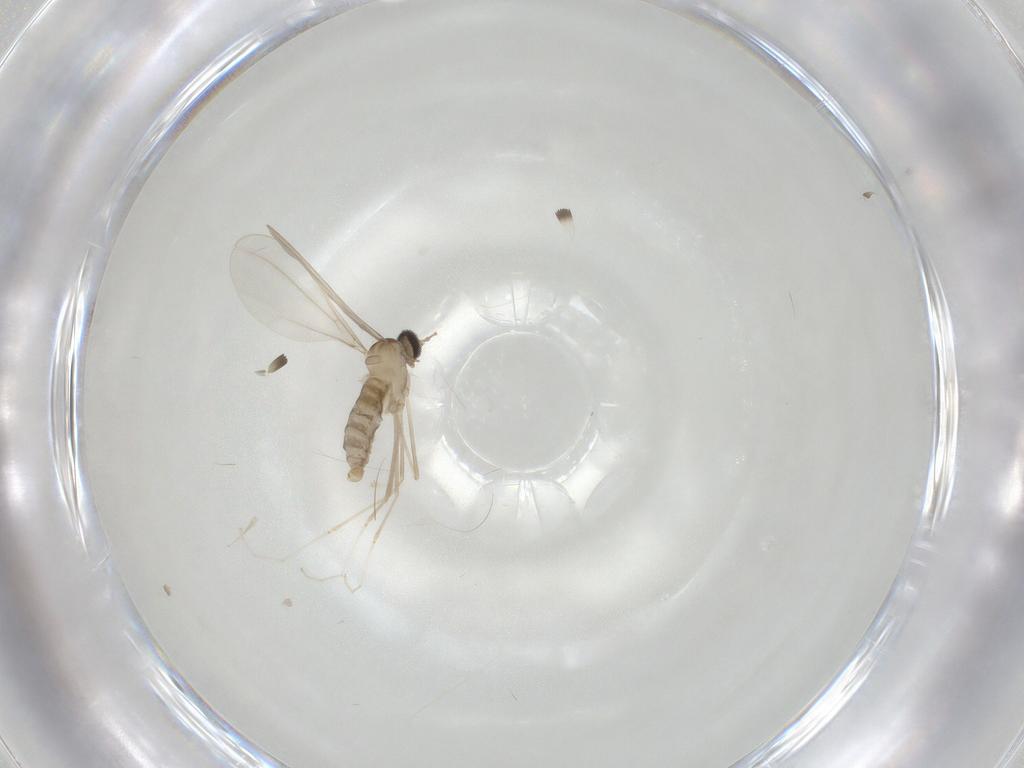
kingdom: Animalia
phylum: Arthropoda
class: Insecta
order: Diptera
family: Cecidomyiidae
